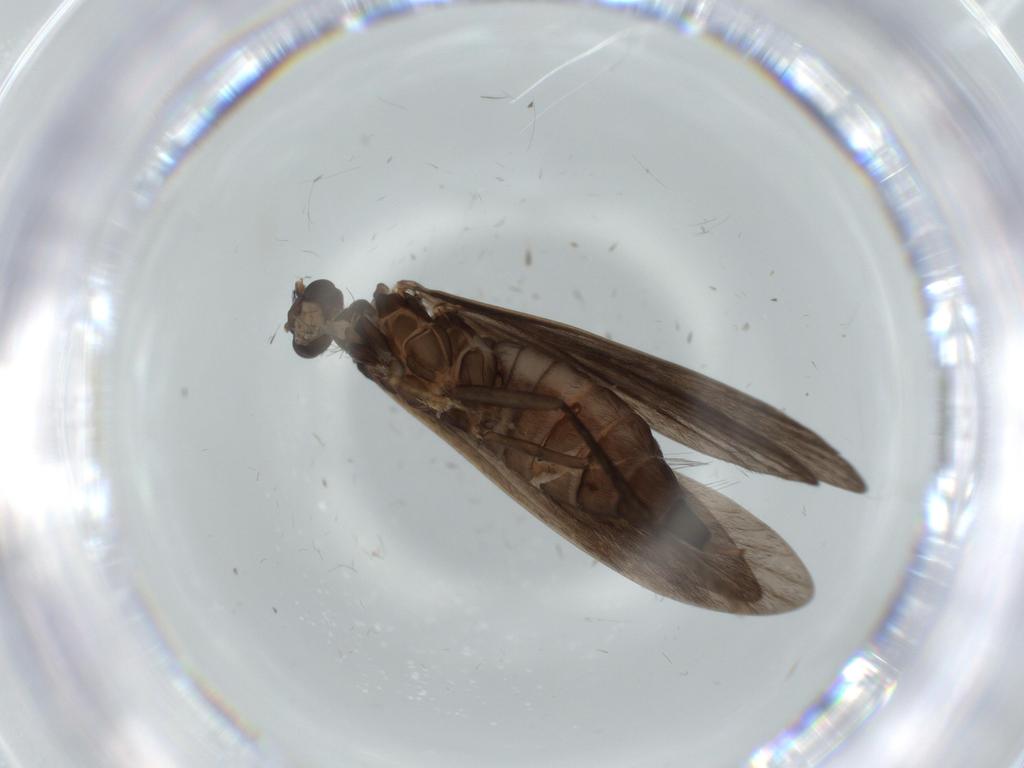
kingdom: Animalia
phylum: Arthropoda
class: Insecta
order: Trichoptera
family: Xiphocentronidae
